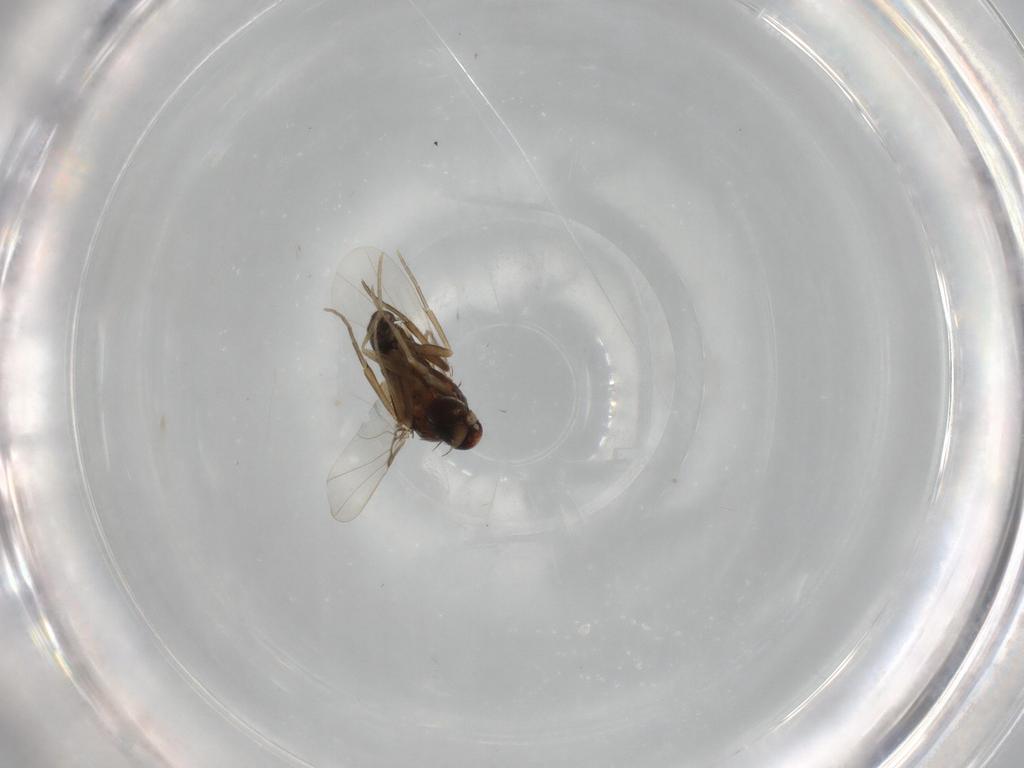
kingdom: Animalia
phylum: Arthropoda
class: Insecta
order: Diptera
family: Phoridae
